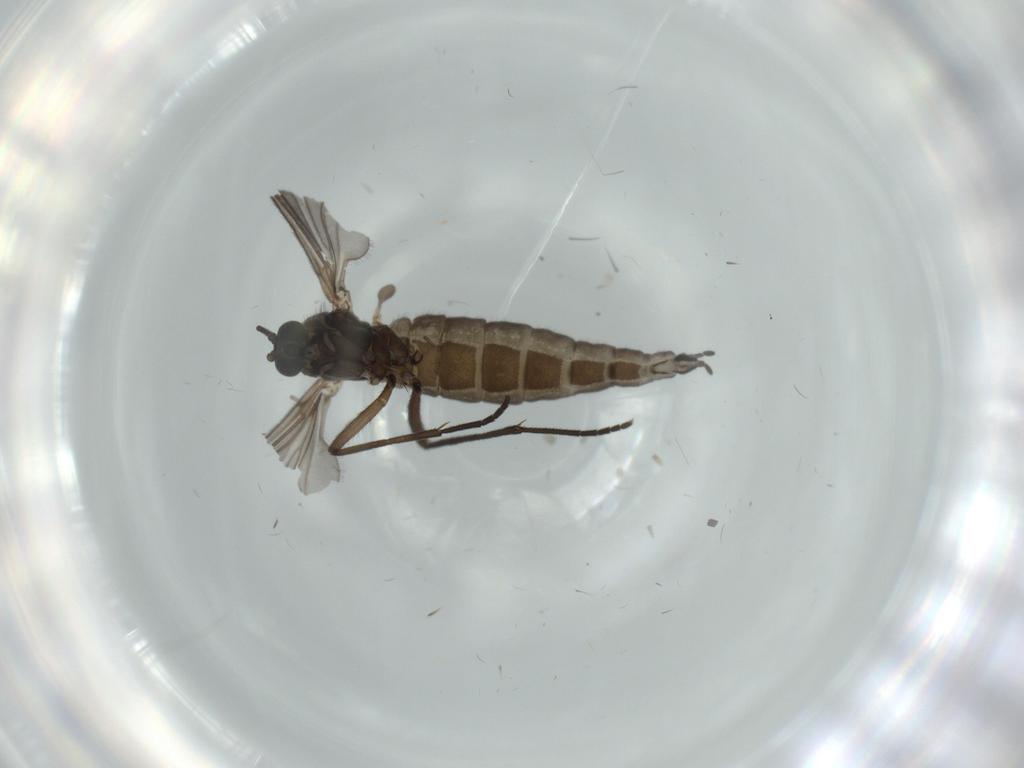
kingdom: Animalia
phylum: Arthropoda
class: Insecta
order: Diptera
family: Sciaridae
